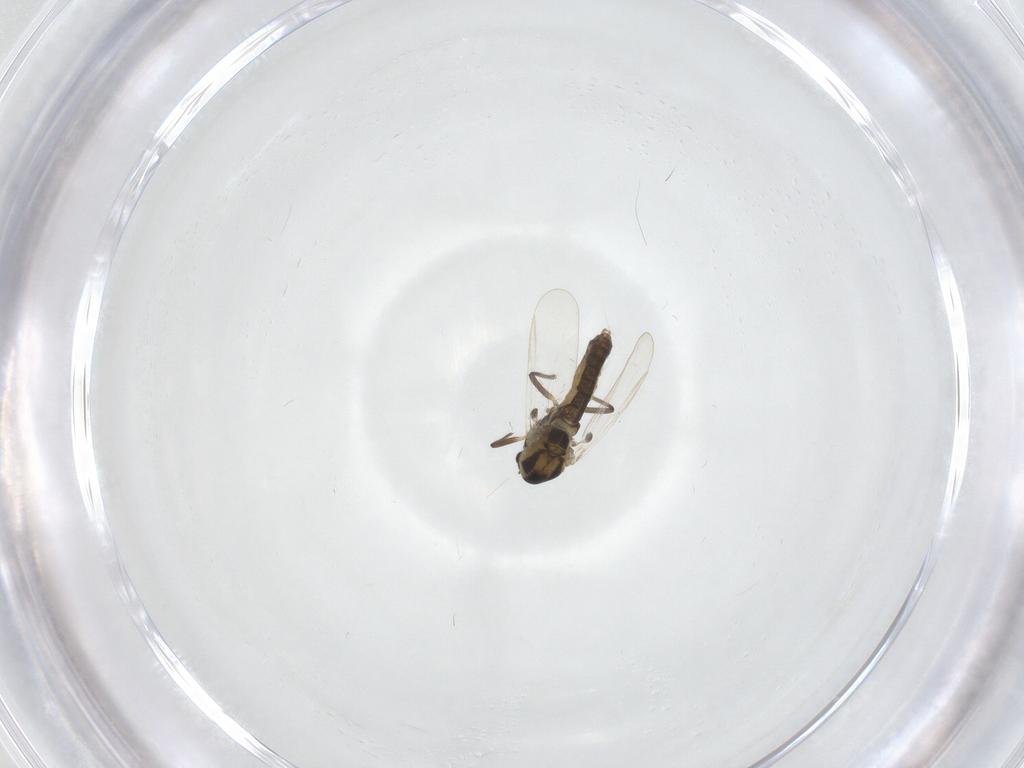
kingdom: Animalia
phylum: Arthropoda
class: Insecta
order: Diptera
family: Chironomidae
